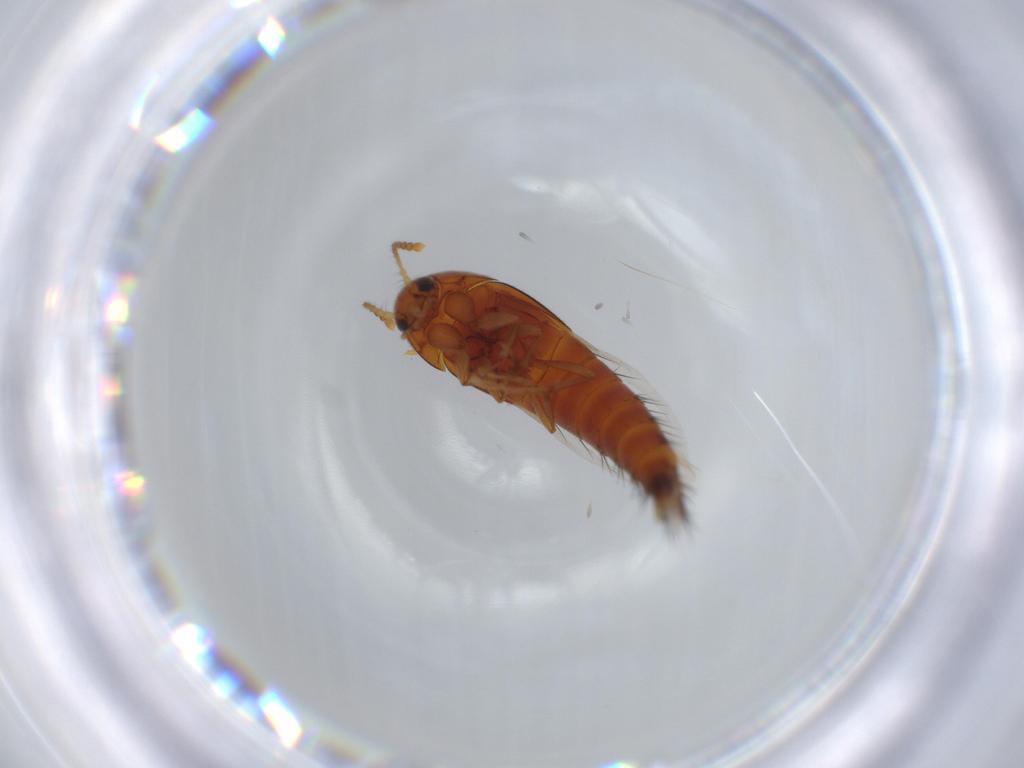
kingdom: Animalia
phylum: Arthropoda
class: Insecta
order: Coleoptera
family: Staphylinidae
